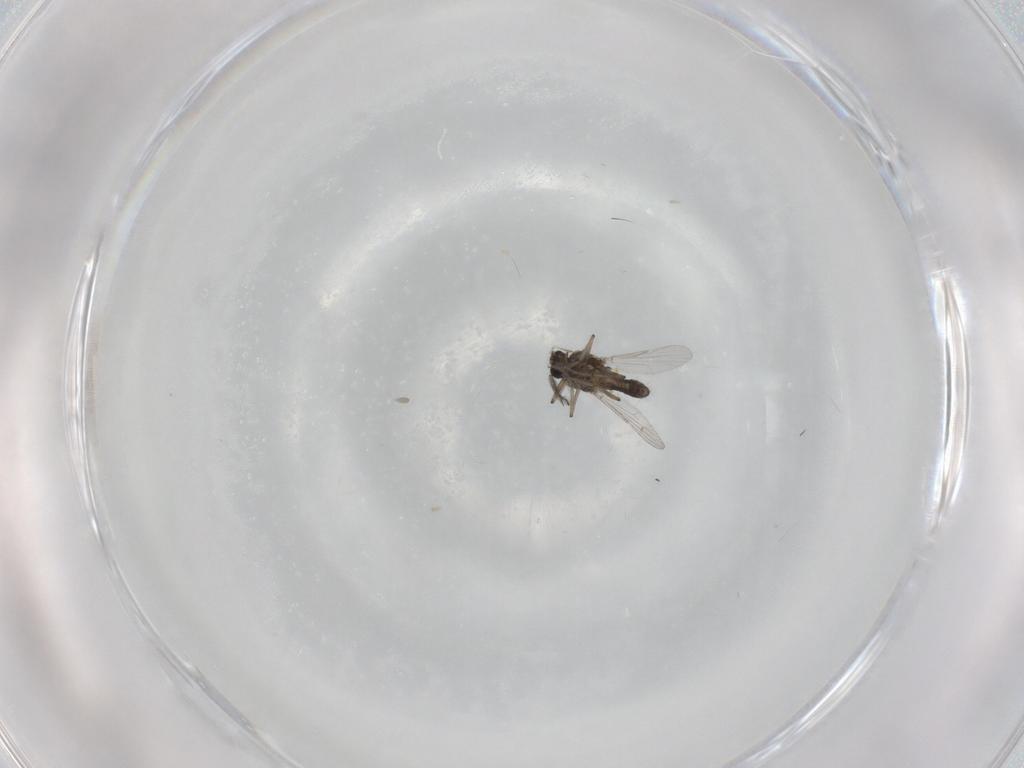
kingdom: Animalia
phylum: Arthropoda
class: Insecta
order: Diptera
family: Ceratopogonidae
